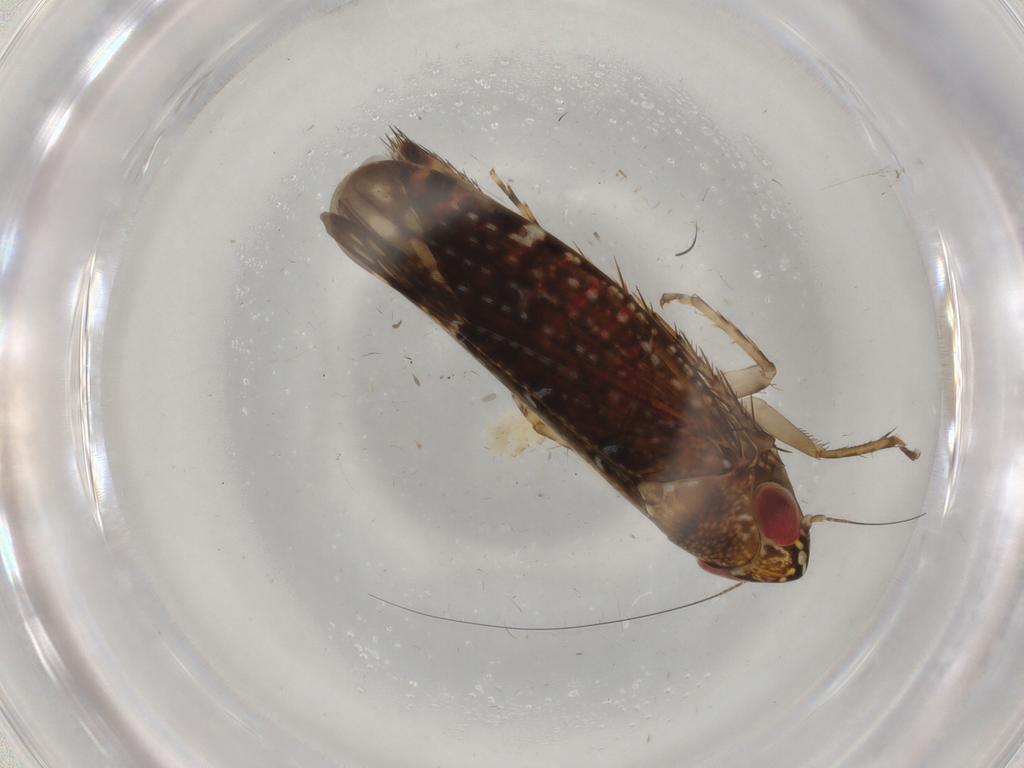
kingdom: Animalia
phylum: Arthropoda
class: Insecta
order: Hemiptera
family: Cicadellidae
